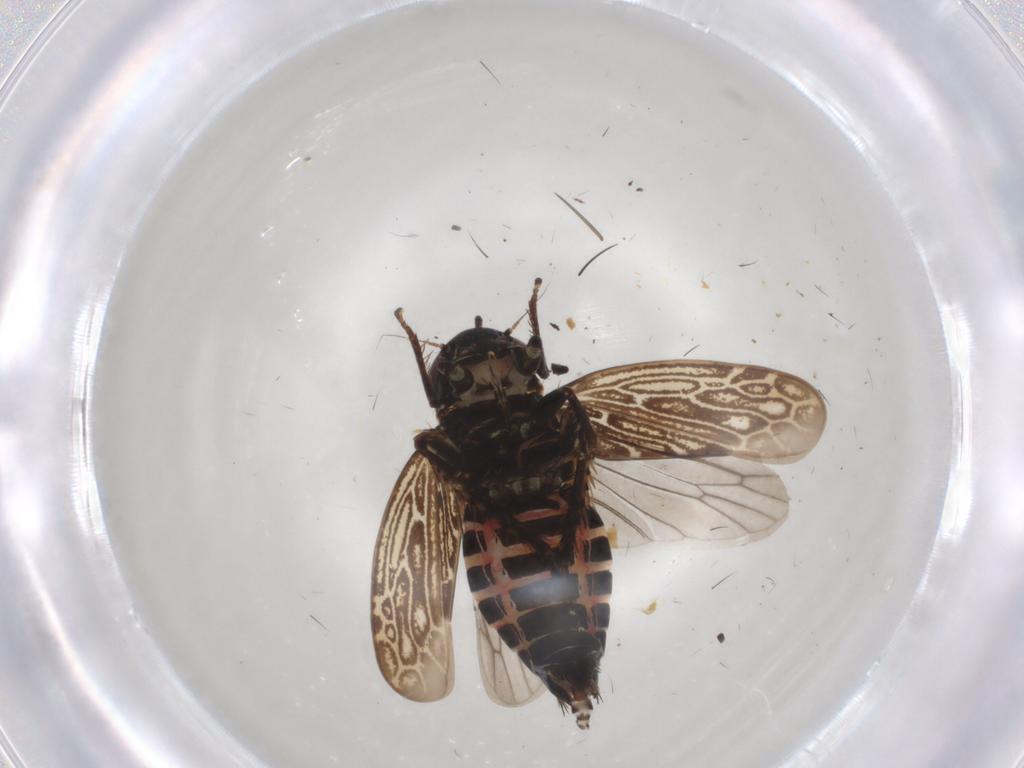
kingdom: Animalia
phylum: Arthropoda
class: Insecta
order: Hemiptera
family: Cicadellidae
